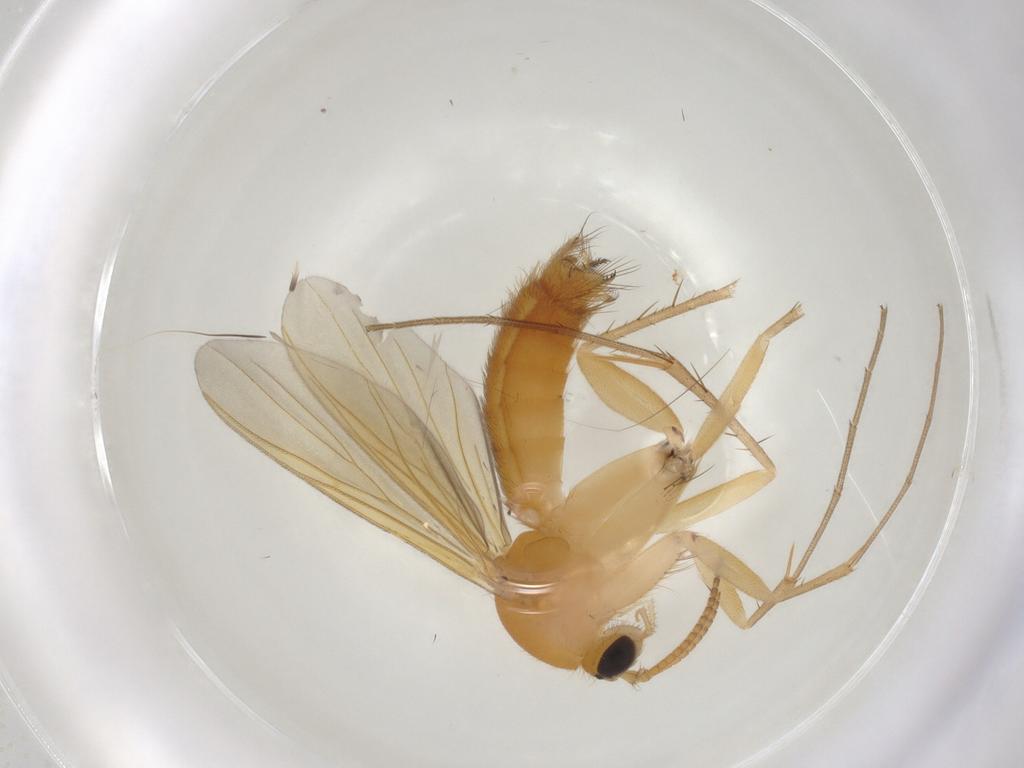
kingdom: Animalia
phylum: Arthropoda
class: Insecta
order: Diptera
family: Mycetophilidae
